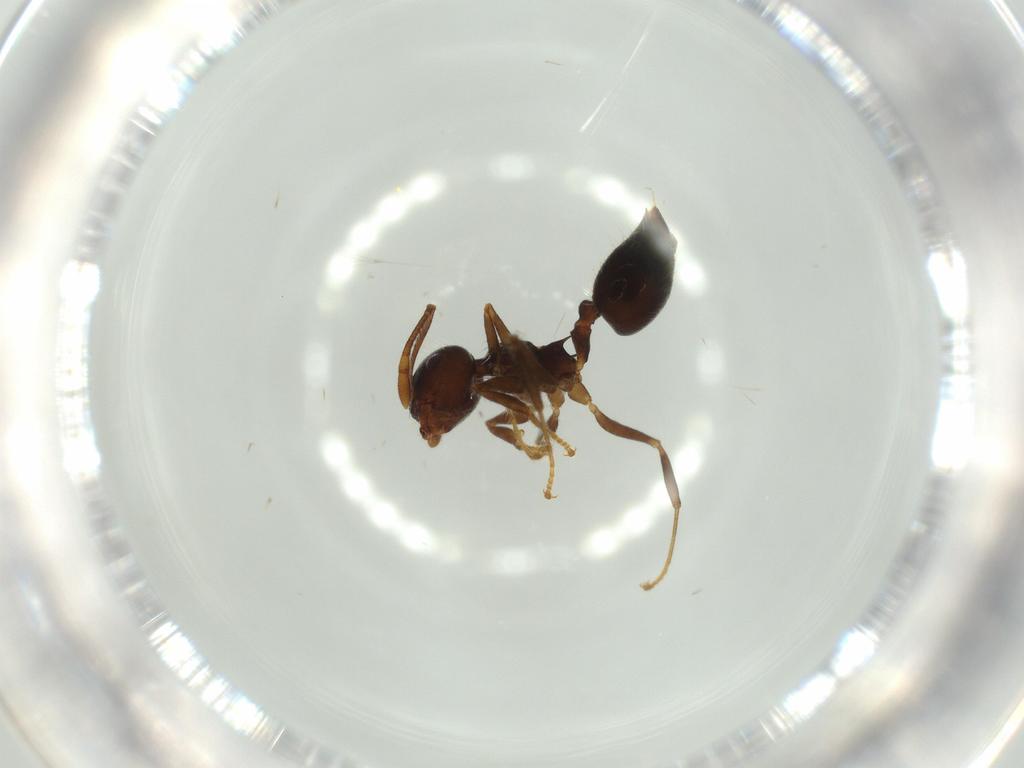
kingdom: Animalia
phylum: Arthropoda
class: Insecta
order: Hymenoptera
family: Formicidae
